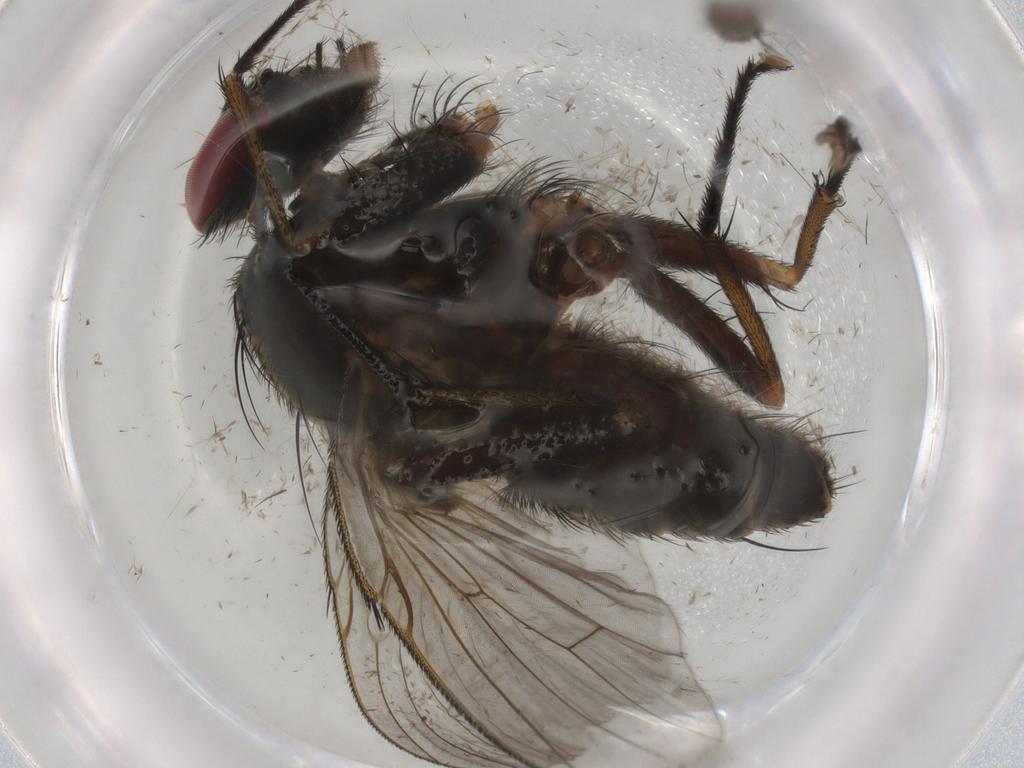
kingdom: Animalia
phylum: Arthropoda
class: Insecta
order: Diptera
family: Muscidae
